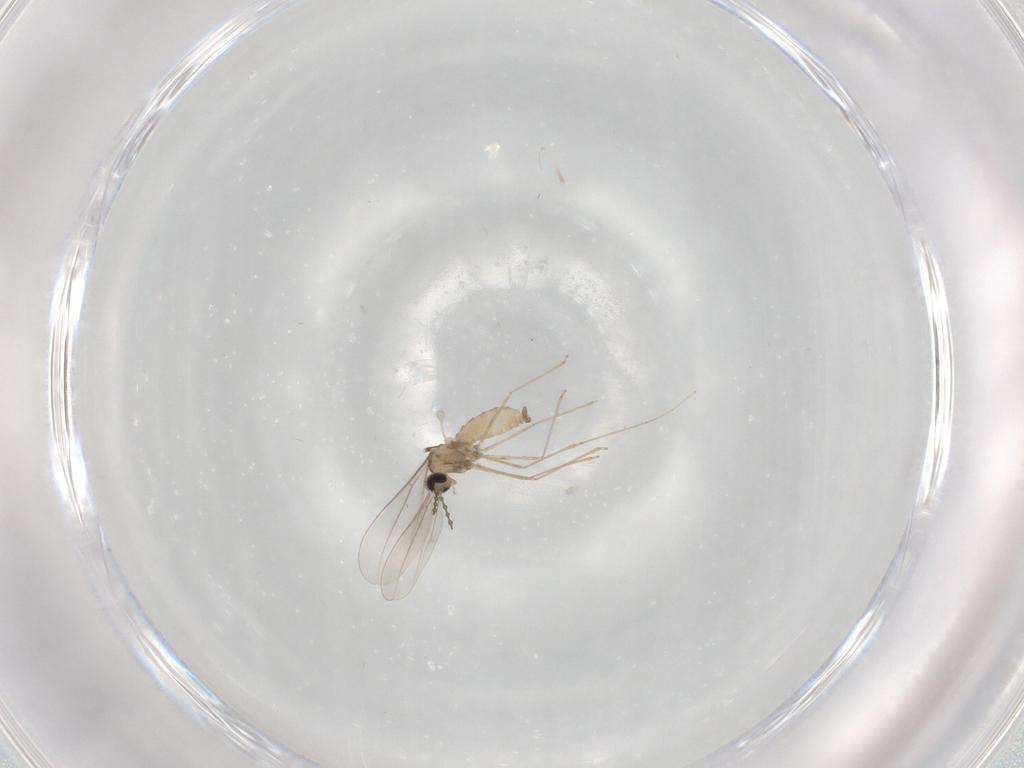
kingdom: Animalia
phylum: Arthropoda
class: Insecta
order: Diptera
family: Cecidomyiidae
